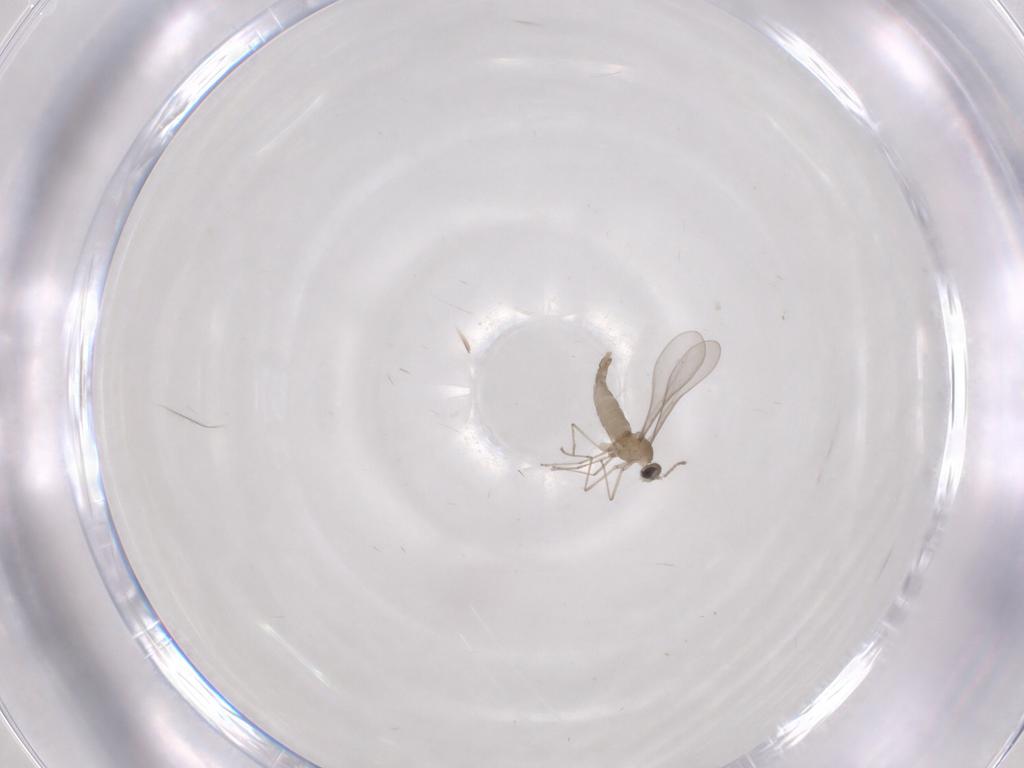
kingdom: Animalia
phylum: Arthropoda
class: Insecta
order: Diptera
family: Cecidomyiidae
